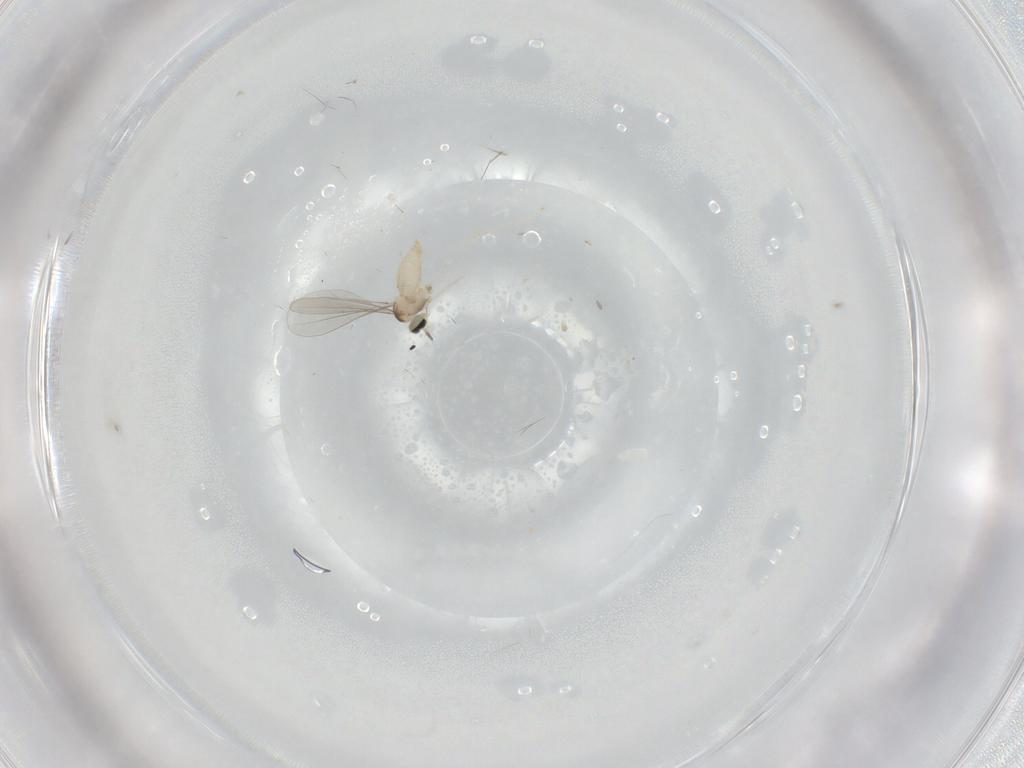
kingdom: Animalia
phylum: Arthropoda
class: Insecta
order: Diptera
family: Cecidomyiidae
